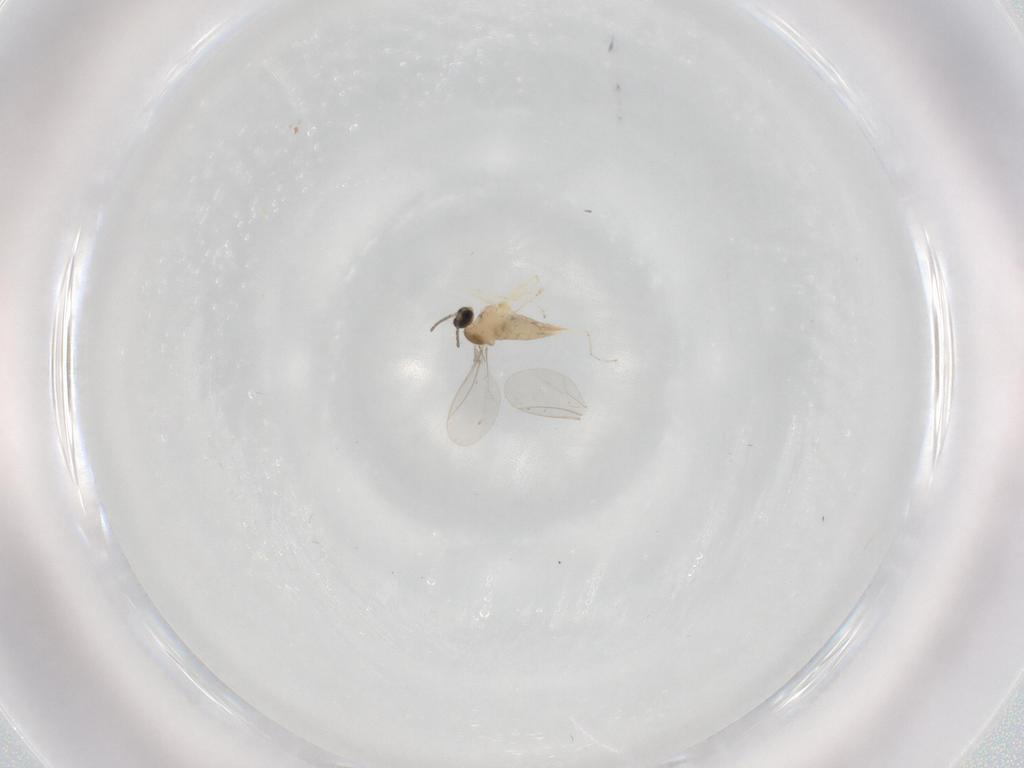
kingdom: Animalia
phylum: Arthropoda
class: Insecta
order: Diptera
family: Cecidomyiidae
